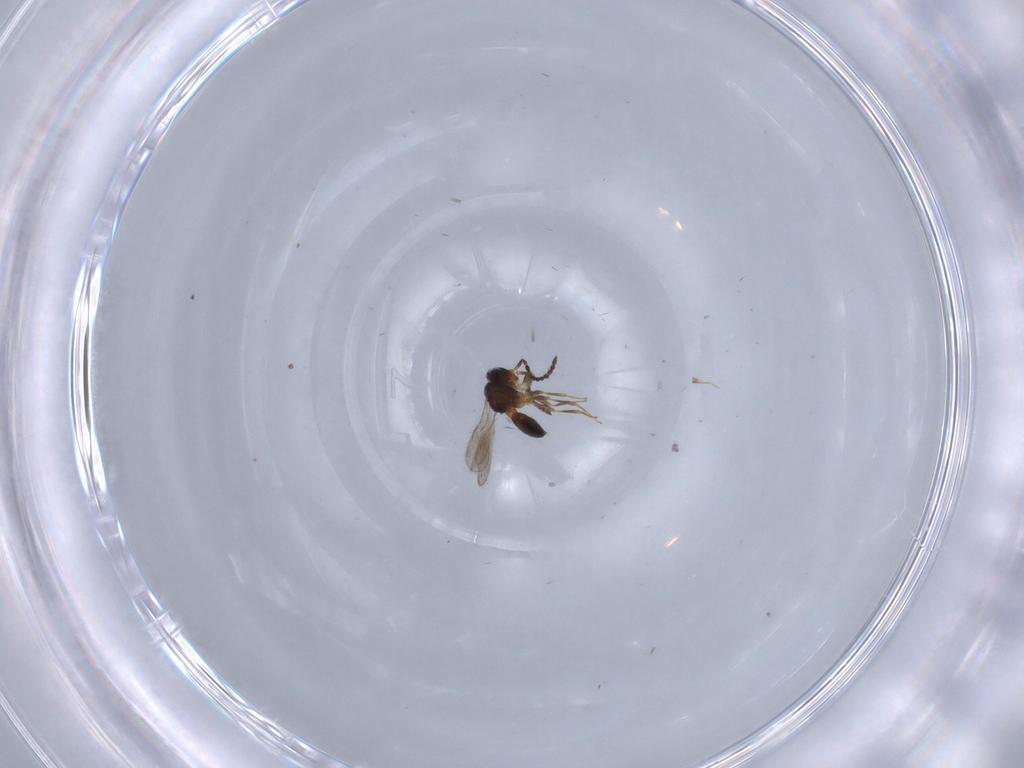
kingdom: Animalia
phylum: Arthropoda
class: Insecta
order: Hymenoptera
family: Scelionidae
